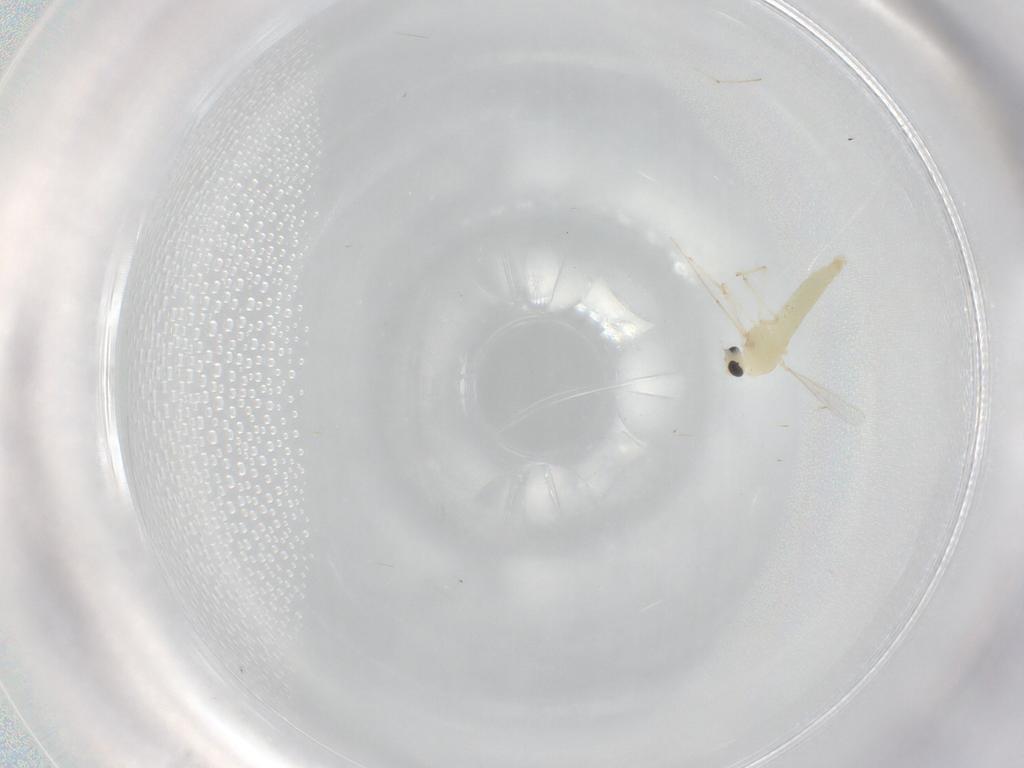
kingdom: Animalia
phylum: Arthropoda
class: Insecta
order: Diptera
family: Chironomidae
